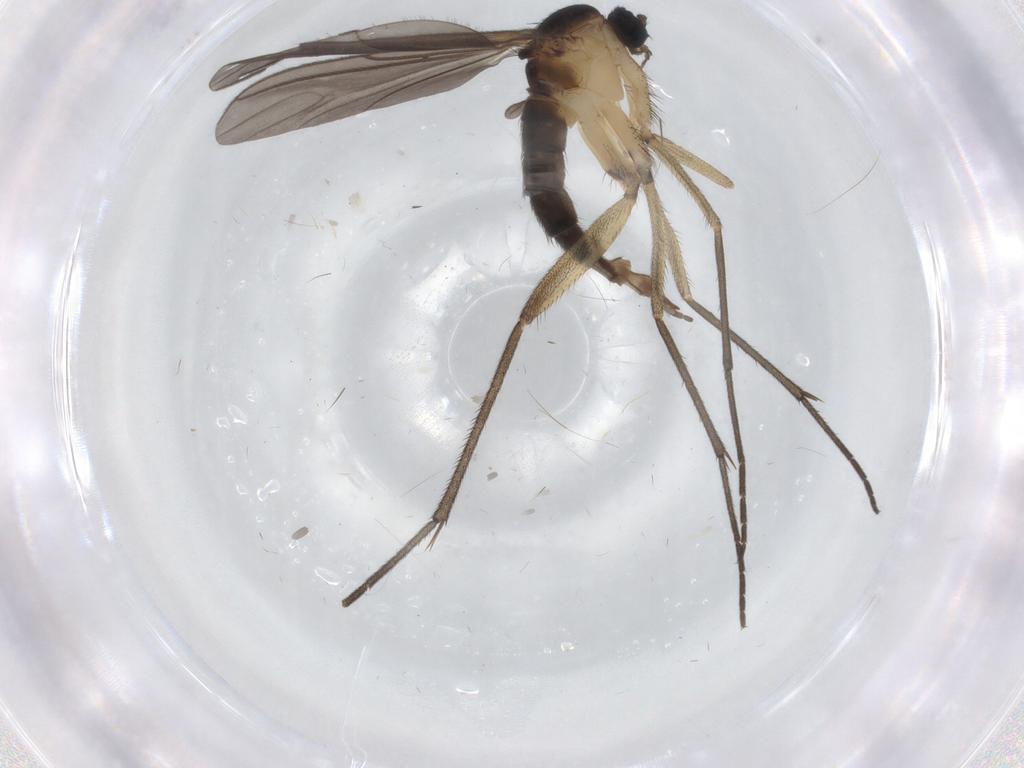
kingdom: Animalia
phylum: Arthropoda
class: Insecta
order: Diptera
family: Sciaridae
